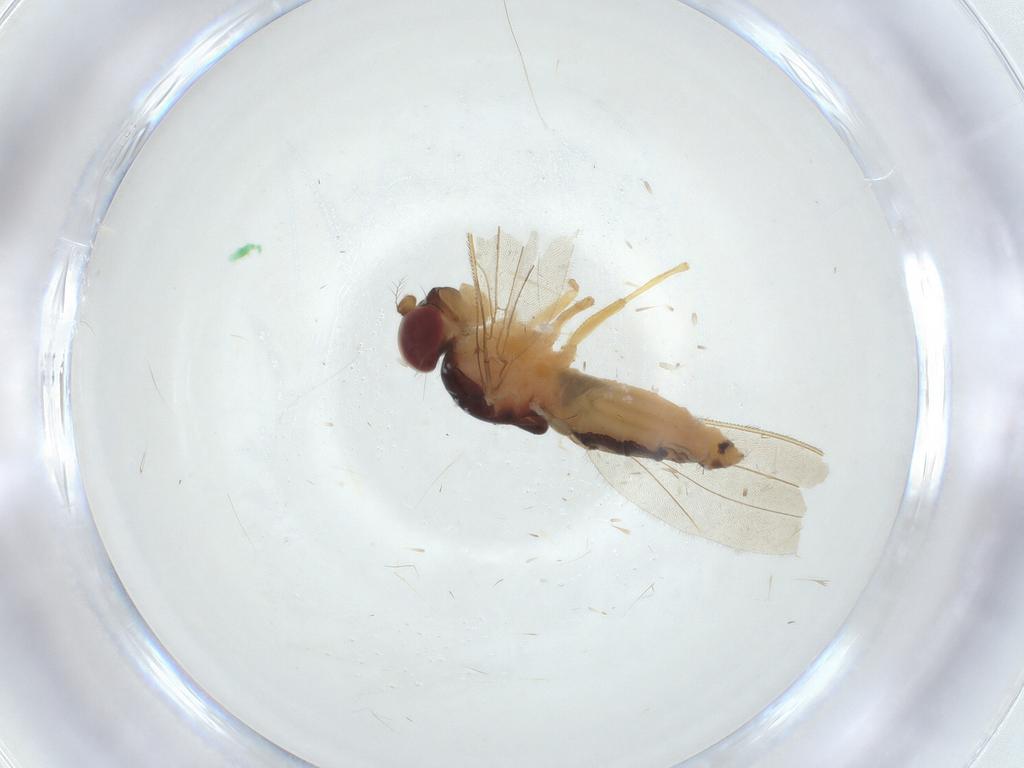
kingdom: Animalia
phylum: Arthropoda
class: Insecta
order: Diptera
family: Asteiidae
